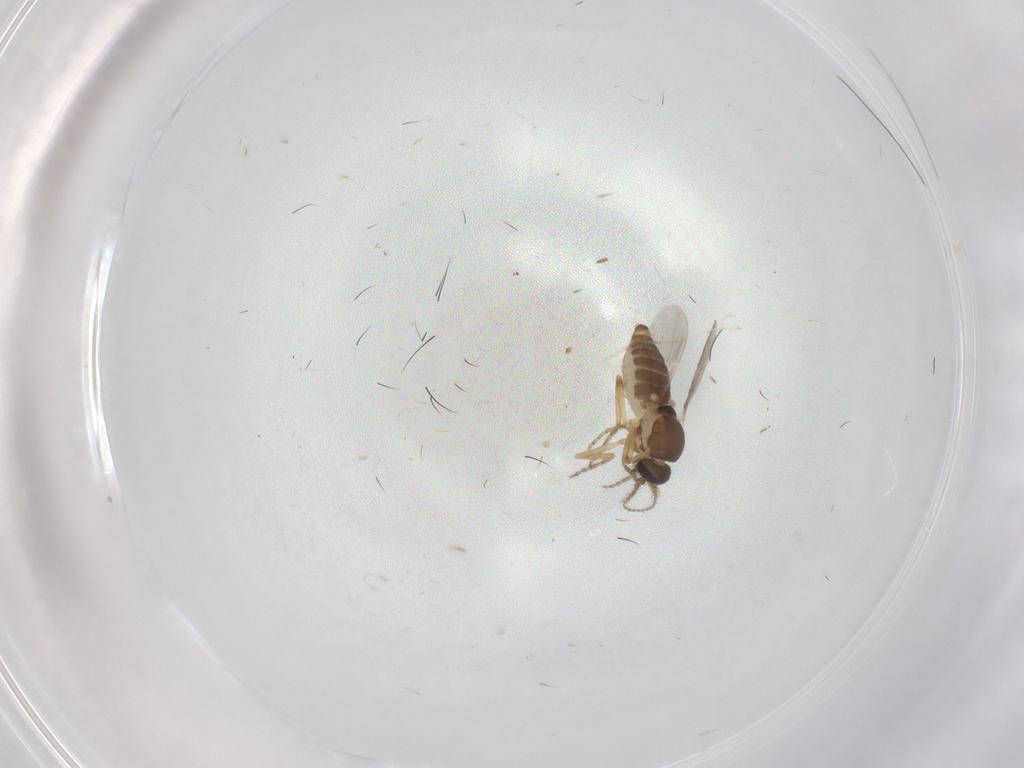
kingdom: Animalia
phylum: Arthropoda
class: Insecta
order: Diptera
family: Ceratopogonidae
